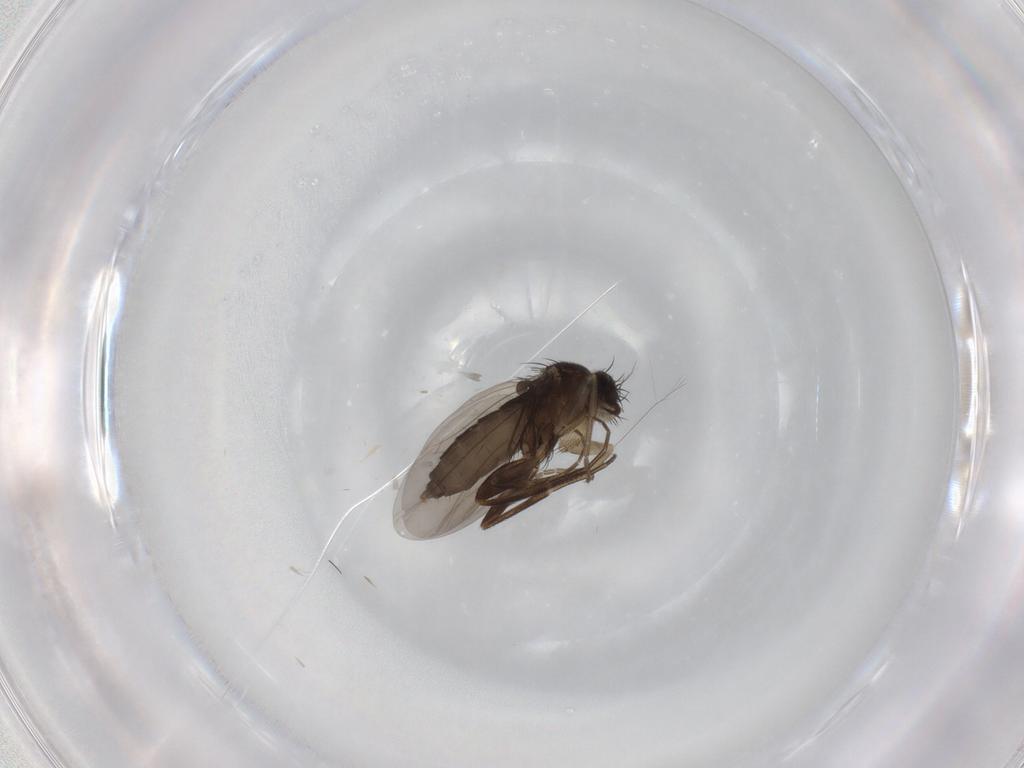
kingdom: Animalia
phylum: Arthropoda
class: Insecta
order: Diptera
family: Phoridae
